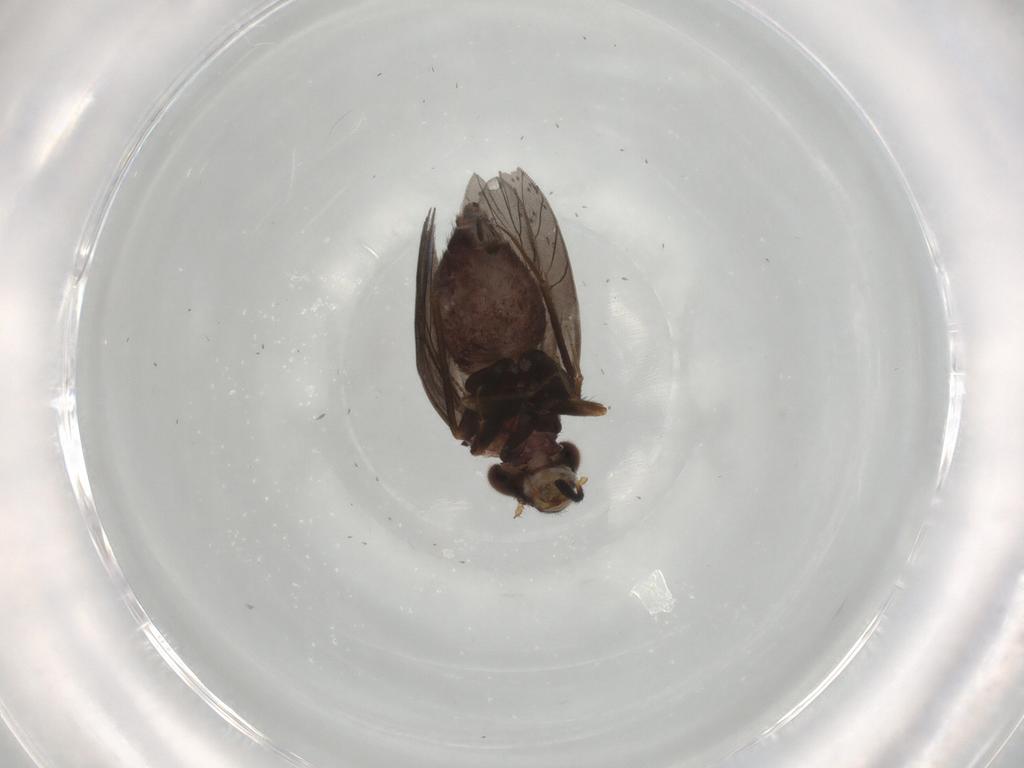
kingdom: Animalia
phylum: Arthropoda
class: Insecta
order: Psocodea
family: Lepidopsocidae
